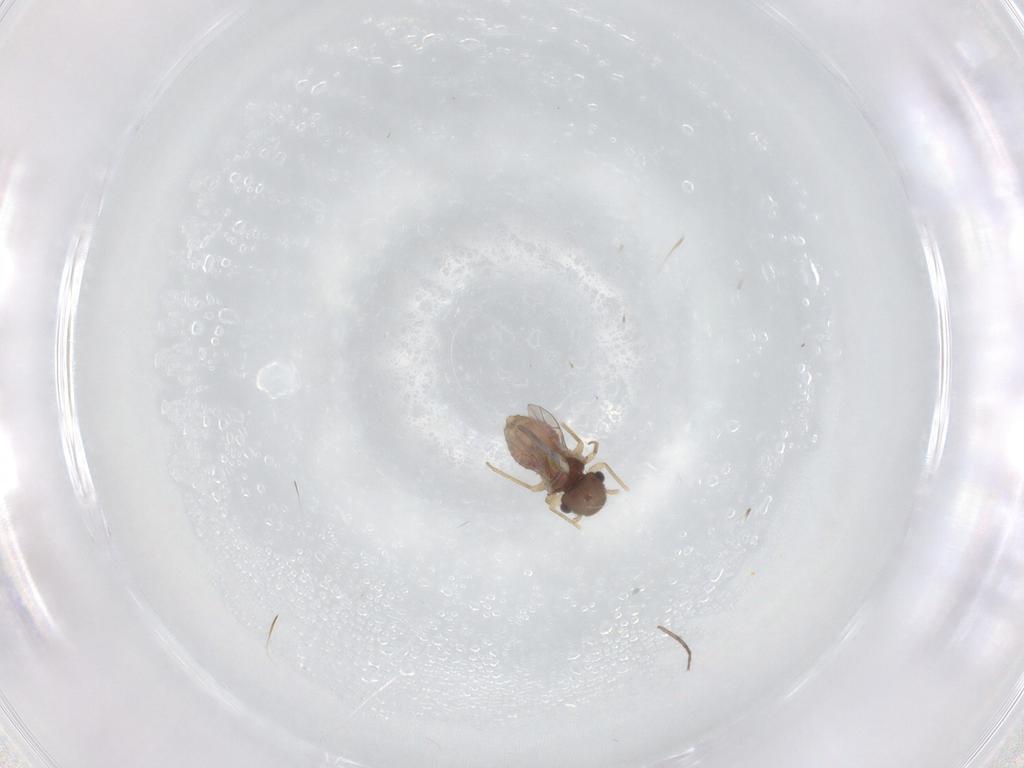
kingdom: Animalia
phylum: Arthropoda
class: Insecta
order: Psocodea
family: Peripsocidae
